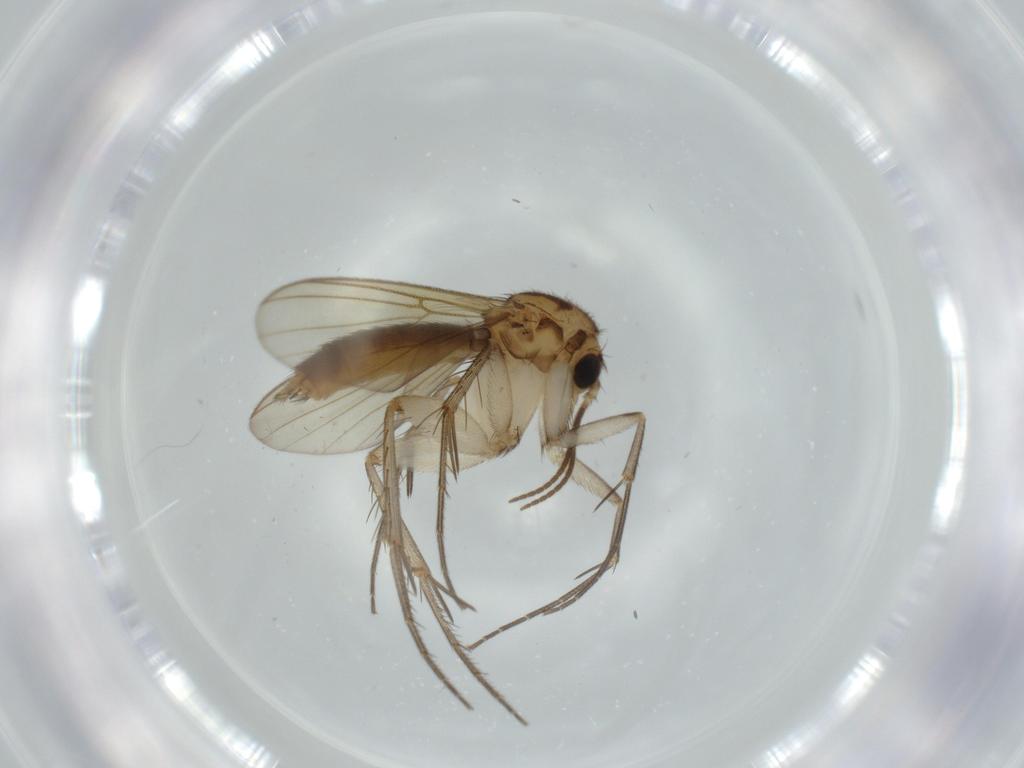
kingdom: Animalia
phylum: Arthropoda
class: Insecta
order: Diptera
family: Mycetophilidae
